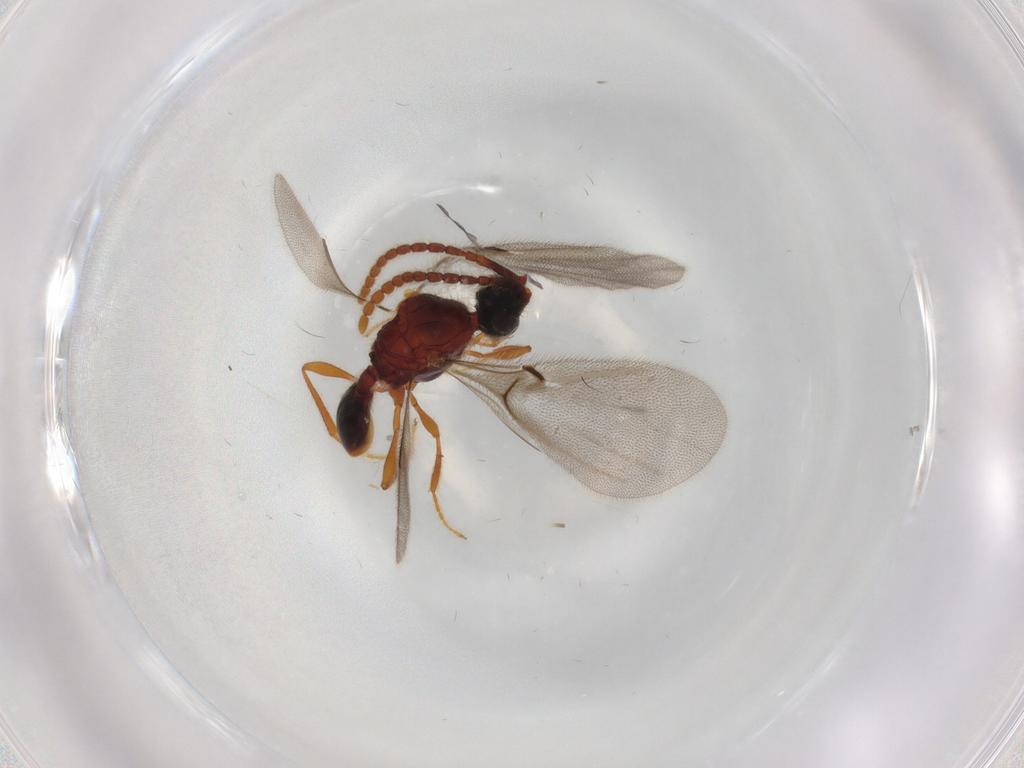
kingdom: Animalia
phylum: Arthropoda
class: Insecta
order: Hymenoptera
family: Diapriidae
